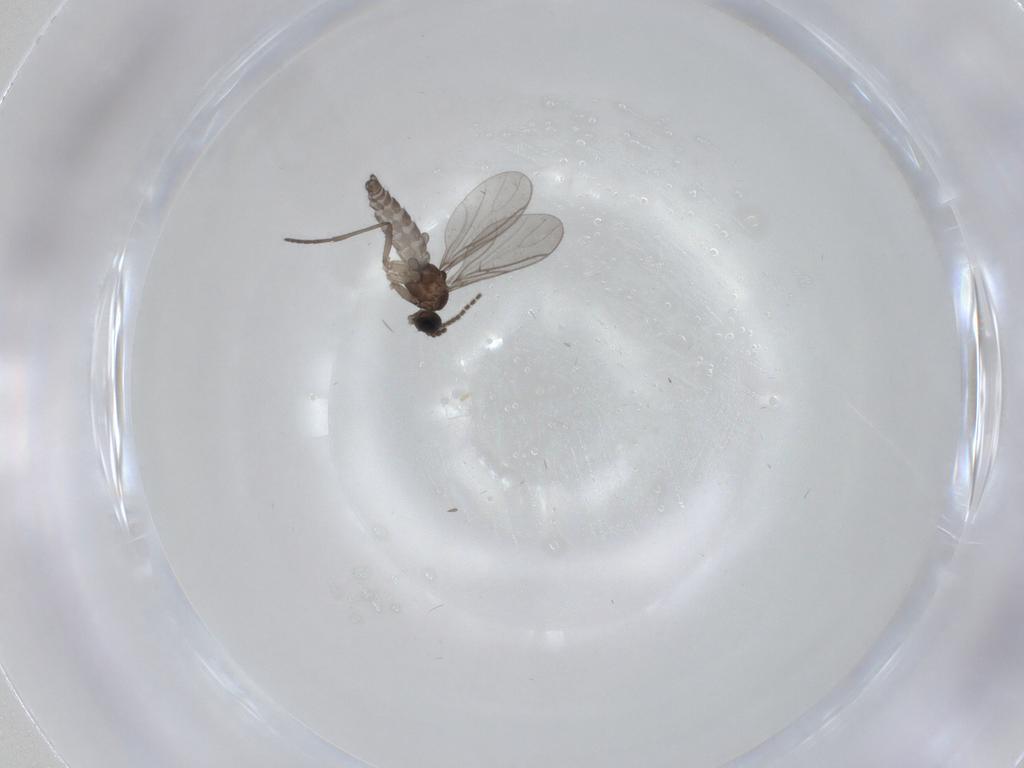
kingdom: Animalia
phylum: Arthropoda
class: Insecta
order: Diptera
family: Phoridae
